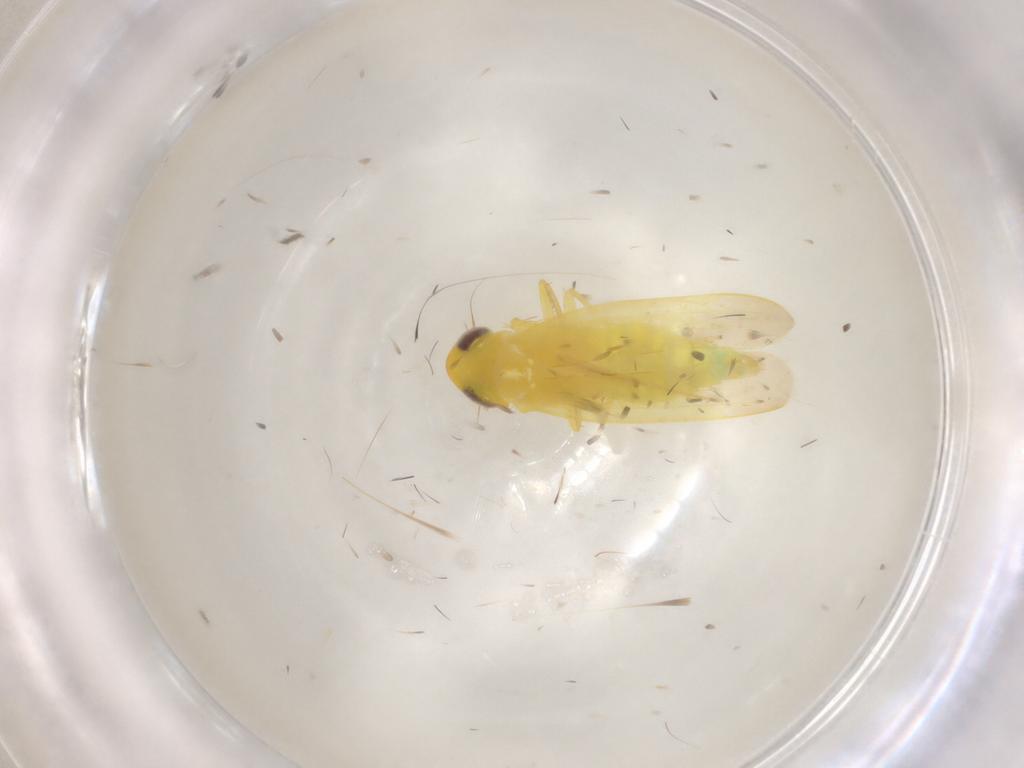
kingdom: Animalia
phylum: Arthropoda
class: Insecta
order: Hemiptera
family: Cicadellidae
